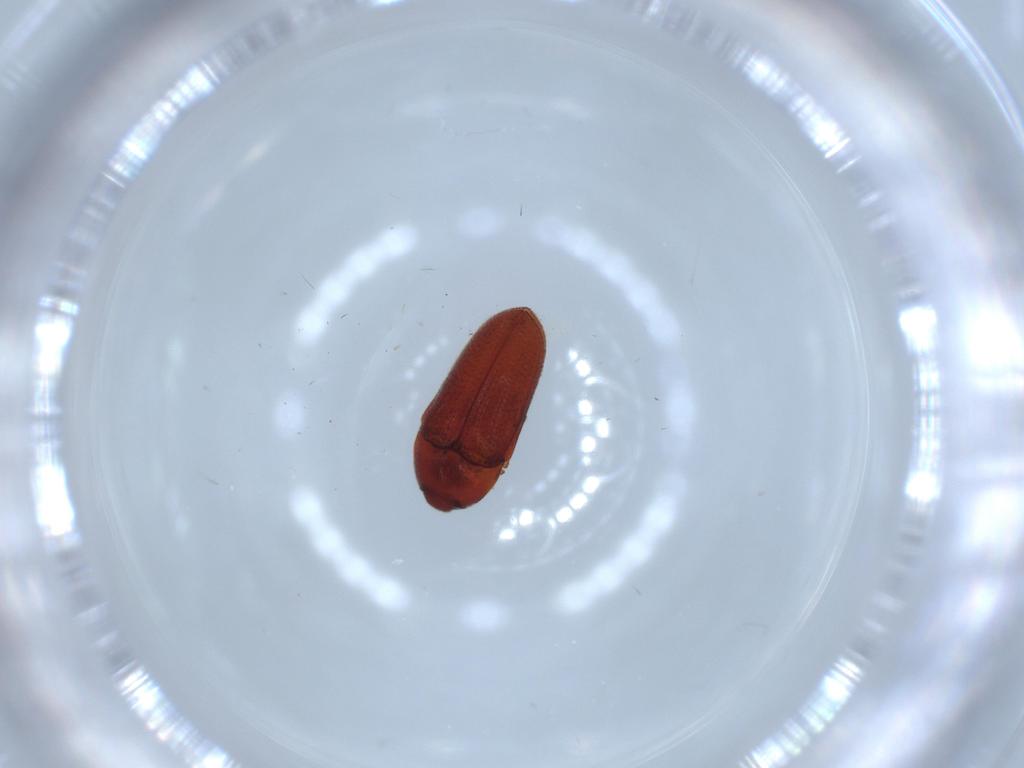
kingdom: Animalia
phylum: Arthropoda
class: Insecta
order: Coleoptera
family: Throscidae
